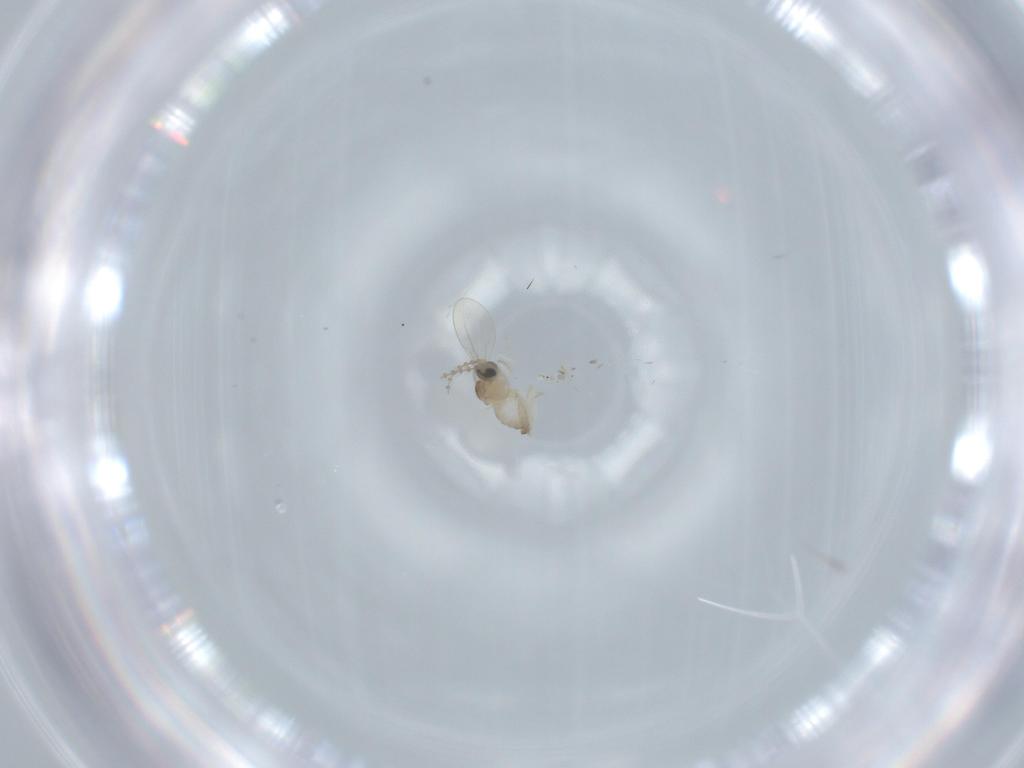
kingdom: Animalia
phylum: Arthropoda
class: Insecta
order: Diptera
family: Cecidomyiidae
